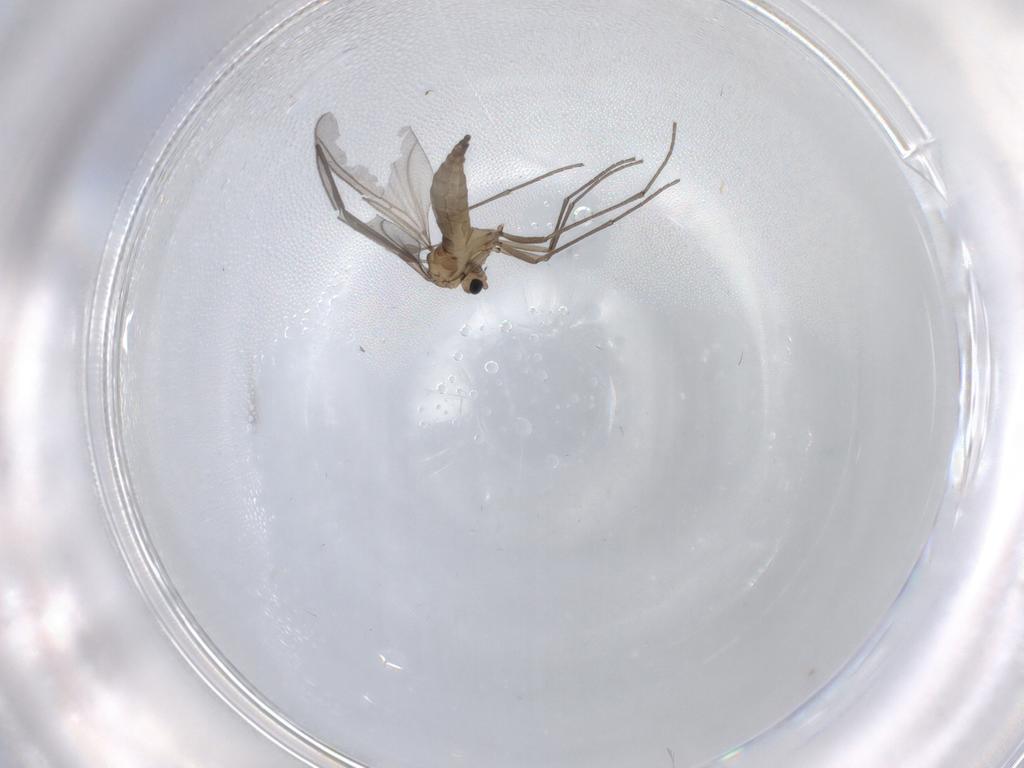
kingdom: Animalia
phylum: Arthropoda
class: Insecta
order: Diptera
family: Sciaridae
